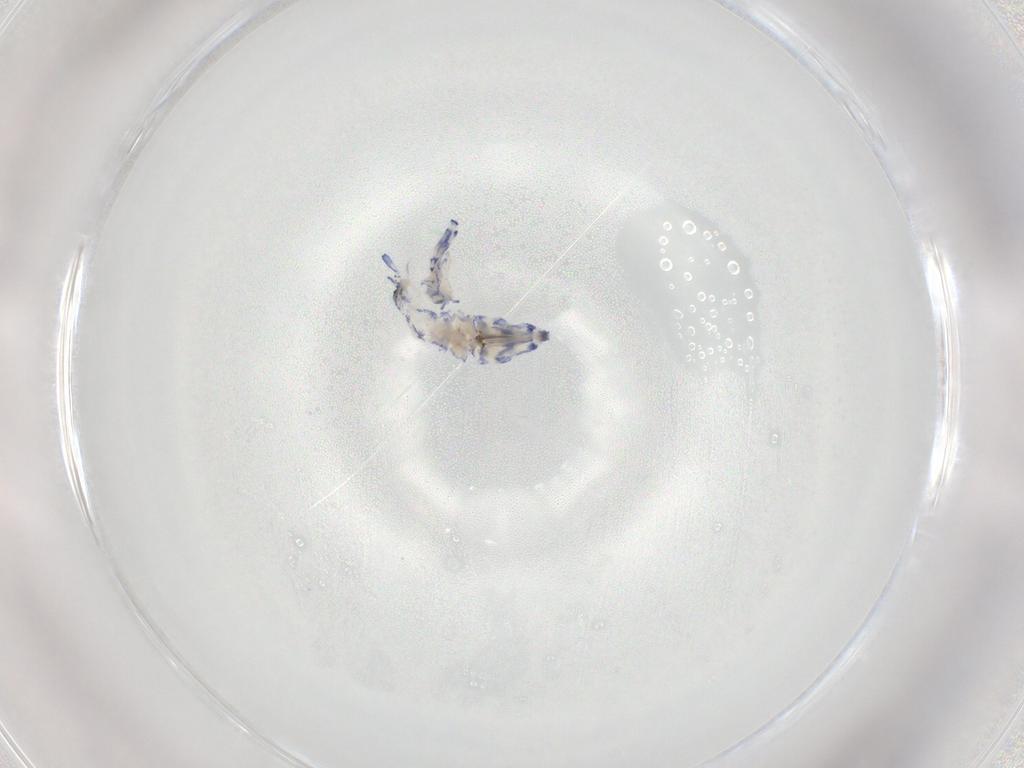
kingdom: Animalia
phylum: Arthropoda
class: Collembola
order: Entomobryomorpha
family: Entomobryidae
